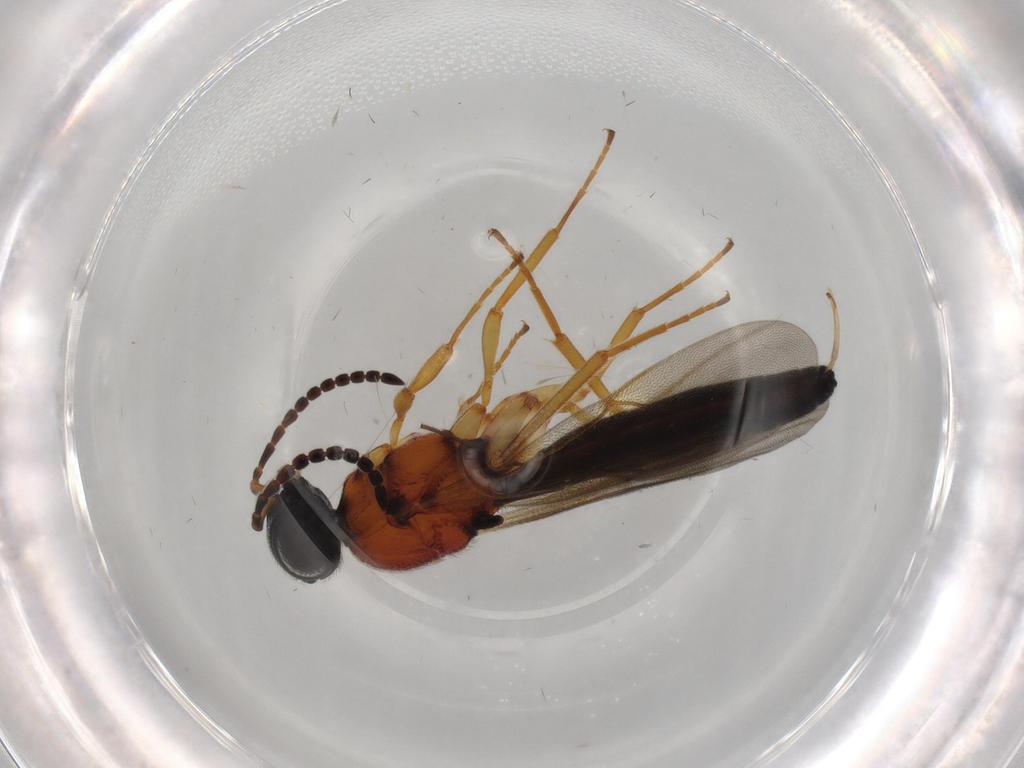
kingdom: Animalia
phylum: Arthropoda
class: Insecta
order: Hymenoptera
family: Scelionidae
